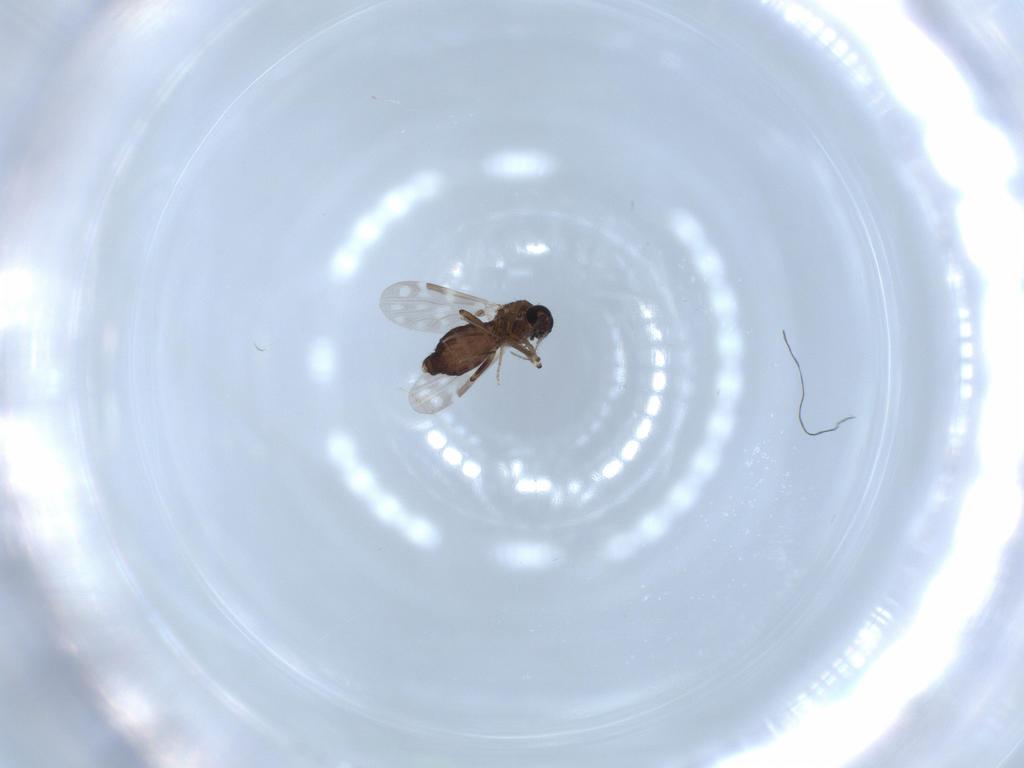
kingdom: Animalia
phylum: Arthropoda
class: Insecta
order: Diptera
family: Ceratopogonidae
